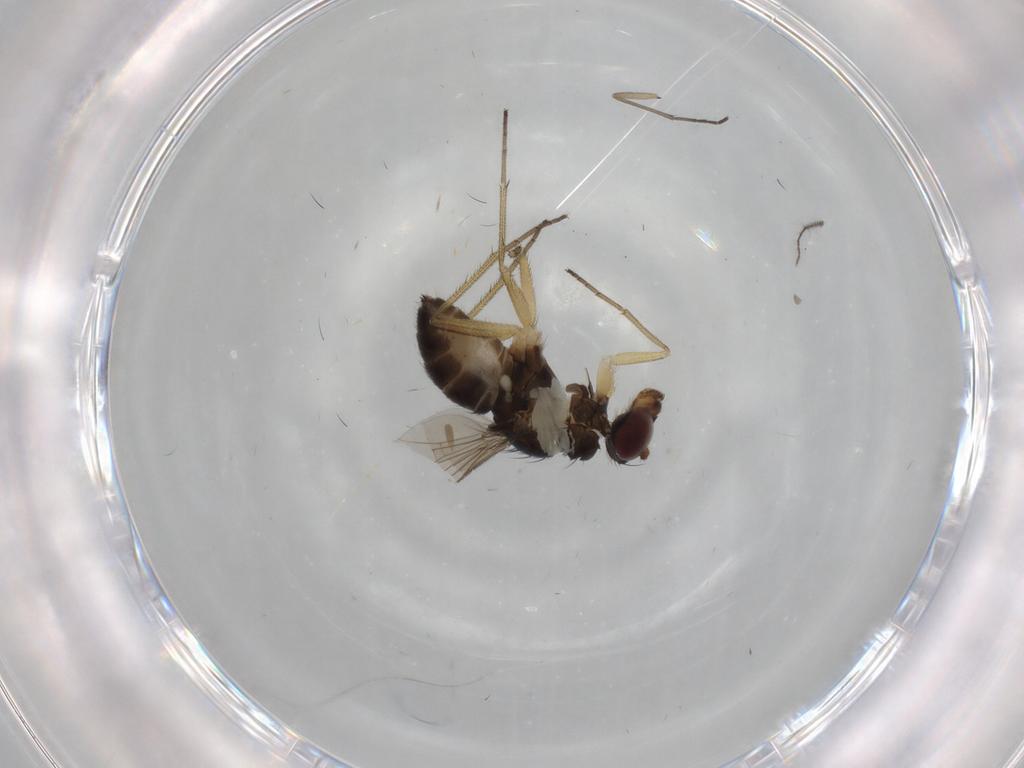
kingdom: Animalia
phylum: Arthropoda
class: Insecta
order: Diptera
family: Dolichopodidae
